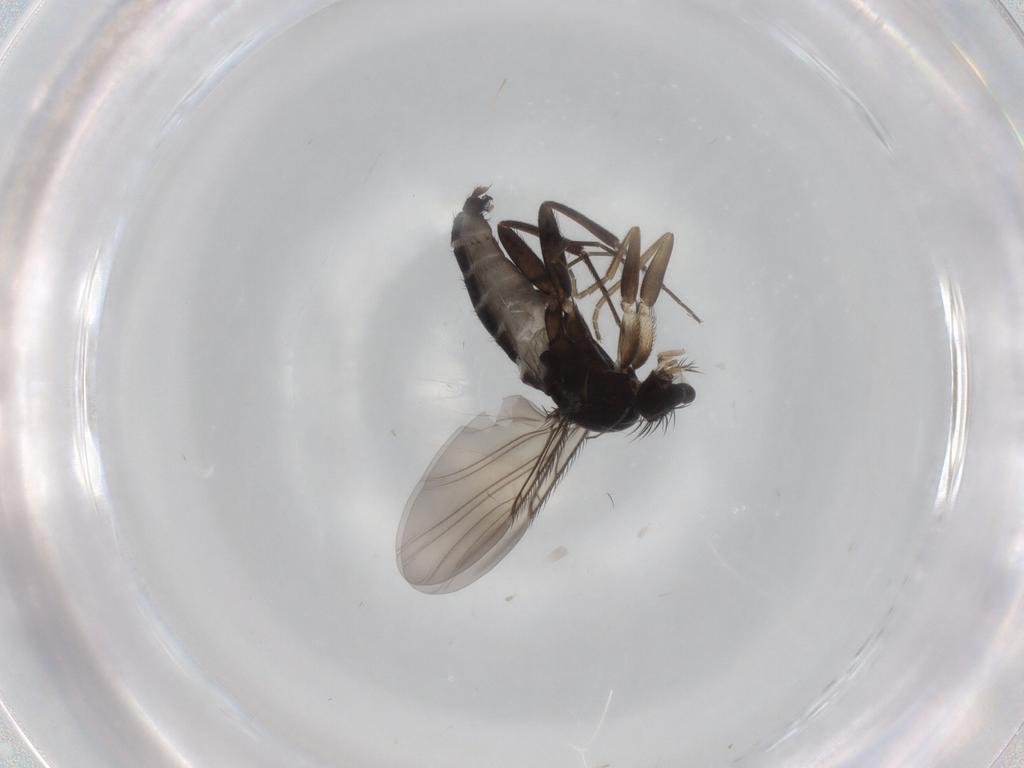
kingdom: Animalia
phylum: Arthropoda
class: Insecta
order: Diptera
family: Phoridae
